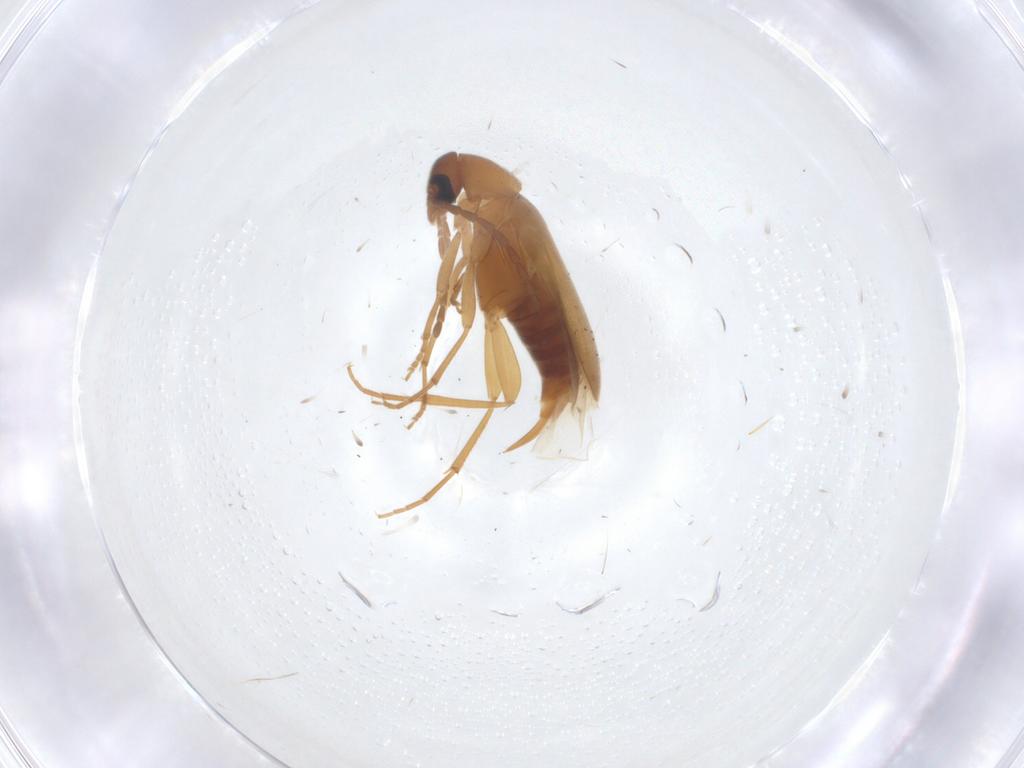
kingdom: Animalia
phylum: Arthropoda
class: Insecta
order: Coleoptera
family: Scraptiidae
